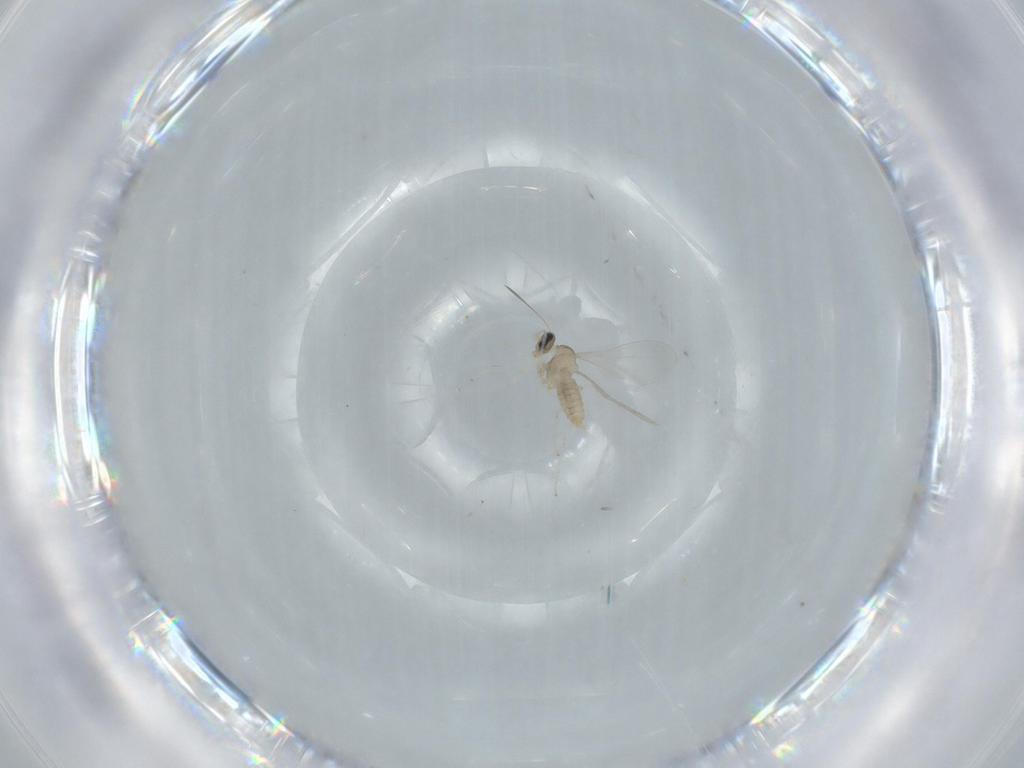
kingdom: Animalia
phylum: Arthropoda
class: Insecta
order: Diptera
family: Cecidomyiidae
